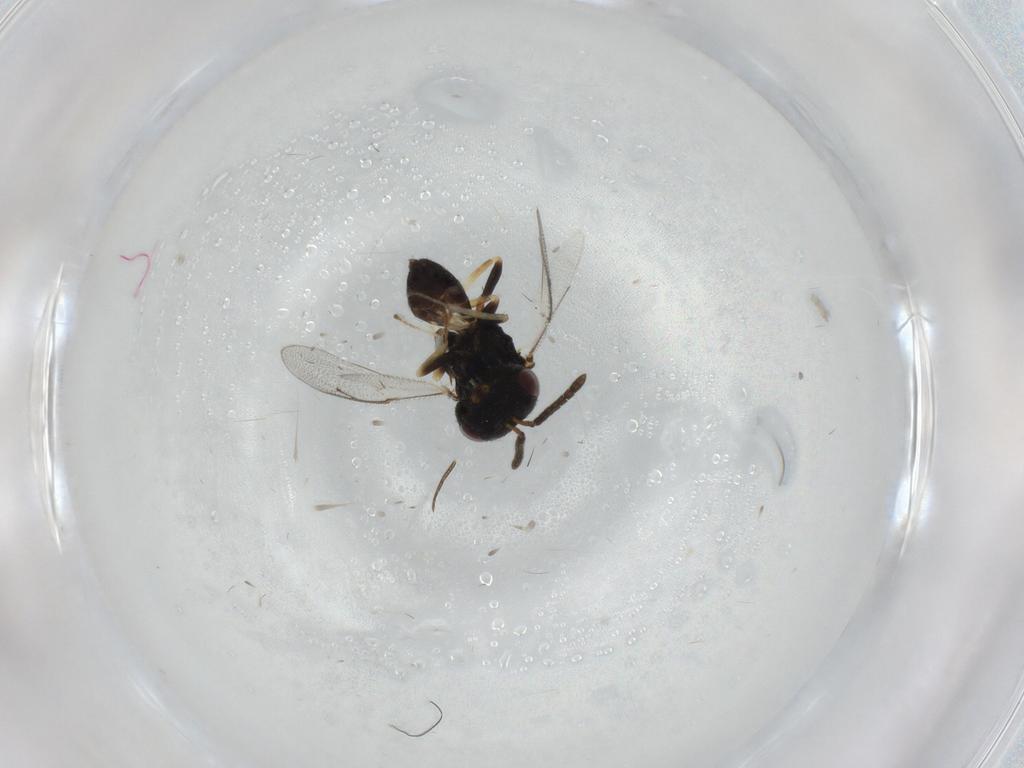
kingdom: Animalia
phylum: Arthropoda
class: Insecta
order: Hymenoptera
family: Pteromalidae
